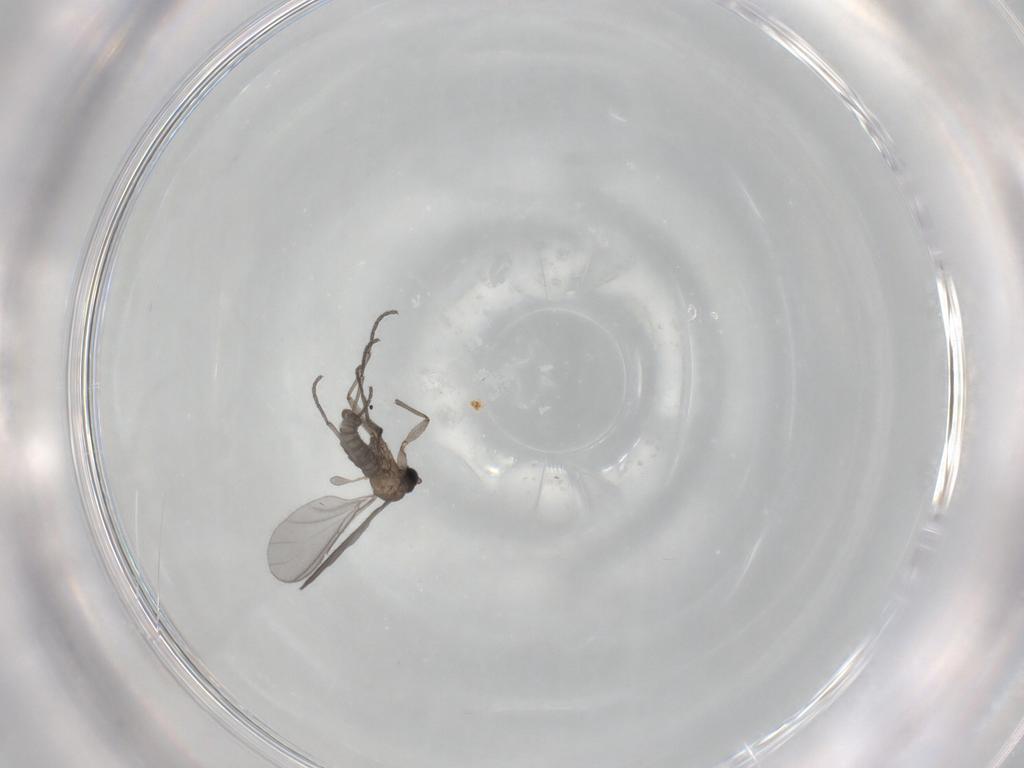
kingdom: Animalia
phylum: Arthropoda
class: Insecta
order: Diptera
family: Sciaridae
